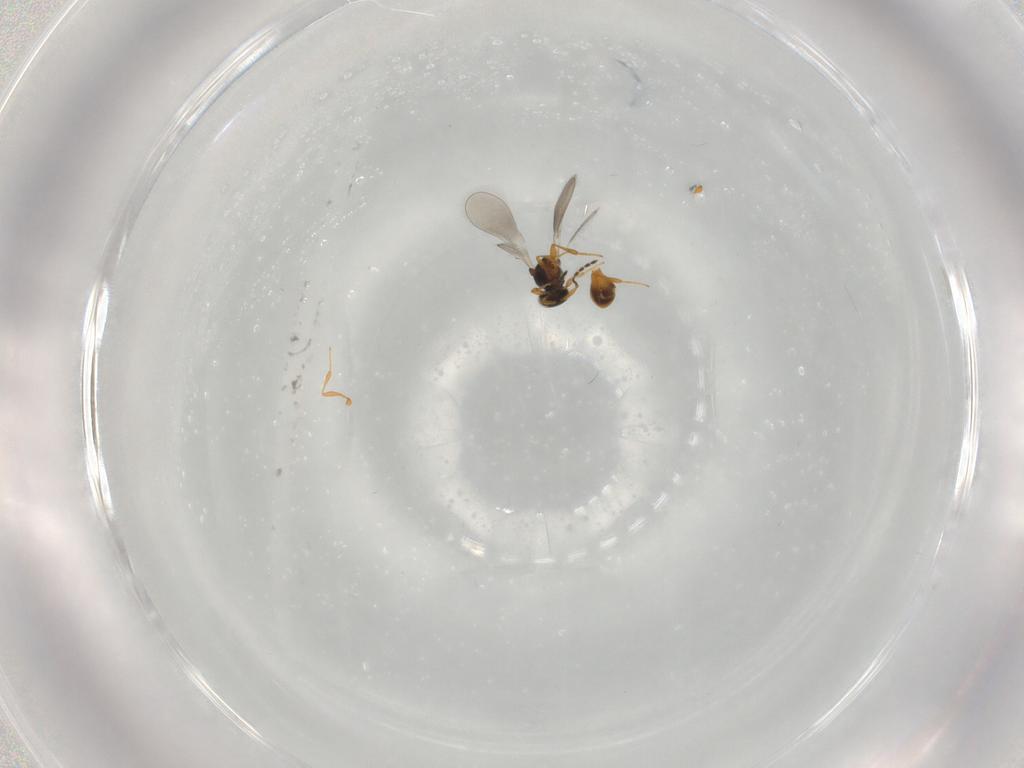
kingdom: Animalia
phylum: Arthropoda
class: Insecta
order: Hymenoptera
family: Platygastridae
